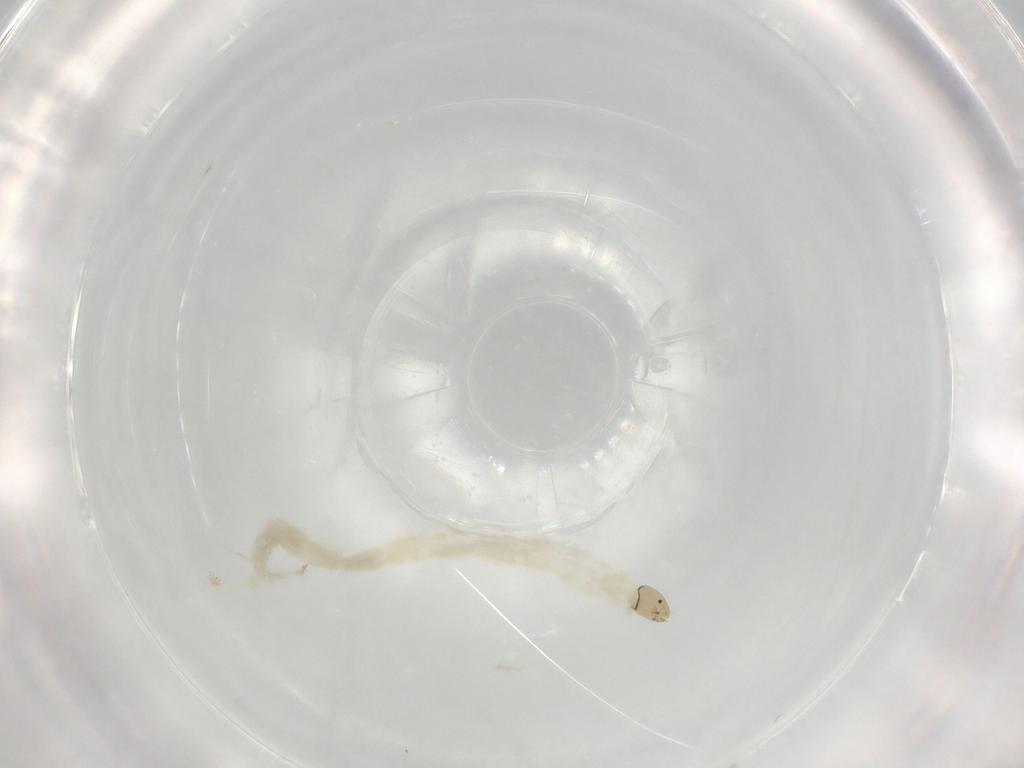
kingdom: Animalia
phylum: Arthropoda
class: Insecta
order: Diptera
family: Chironomidae
